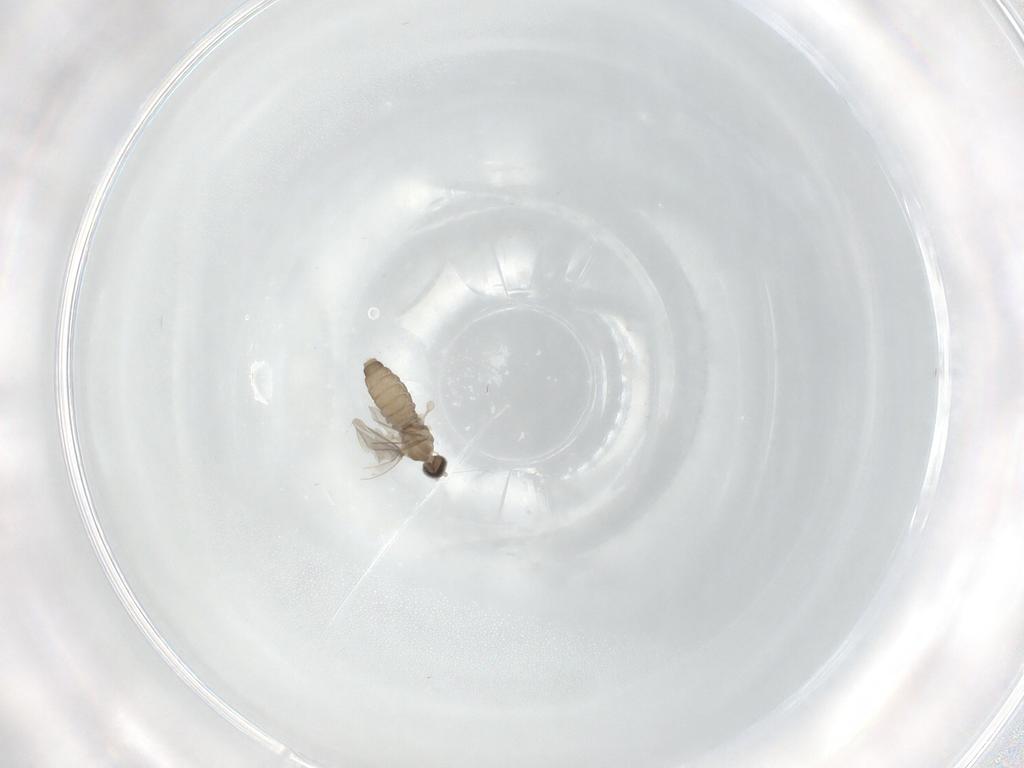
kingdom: Animalia
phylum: Arthropoda
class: Insecta
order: Diptera
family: Cecidomyiidae
